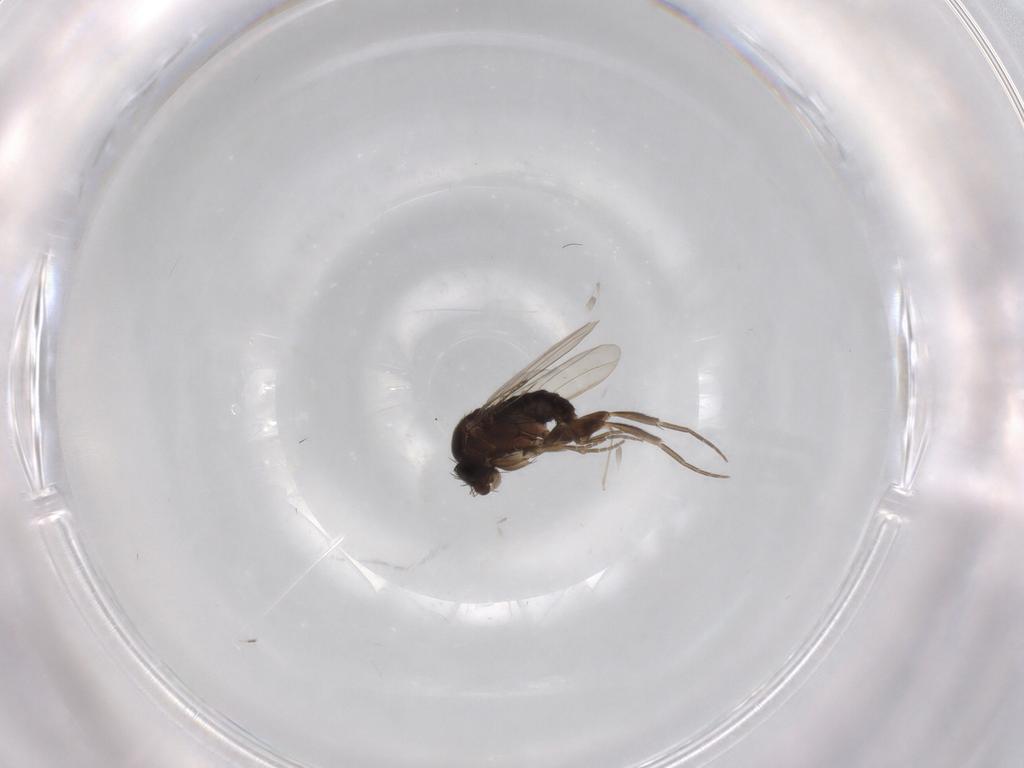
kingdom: Animalia
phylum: Arthropoda
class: Insecta
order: Diptera
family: Phoridae
